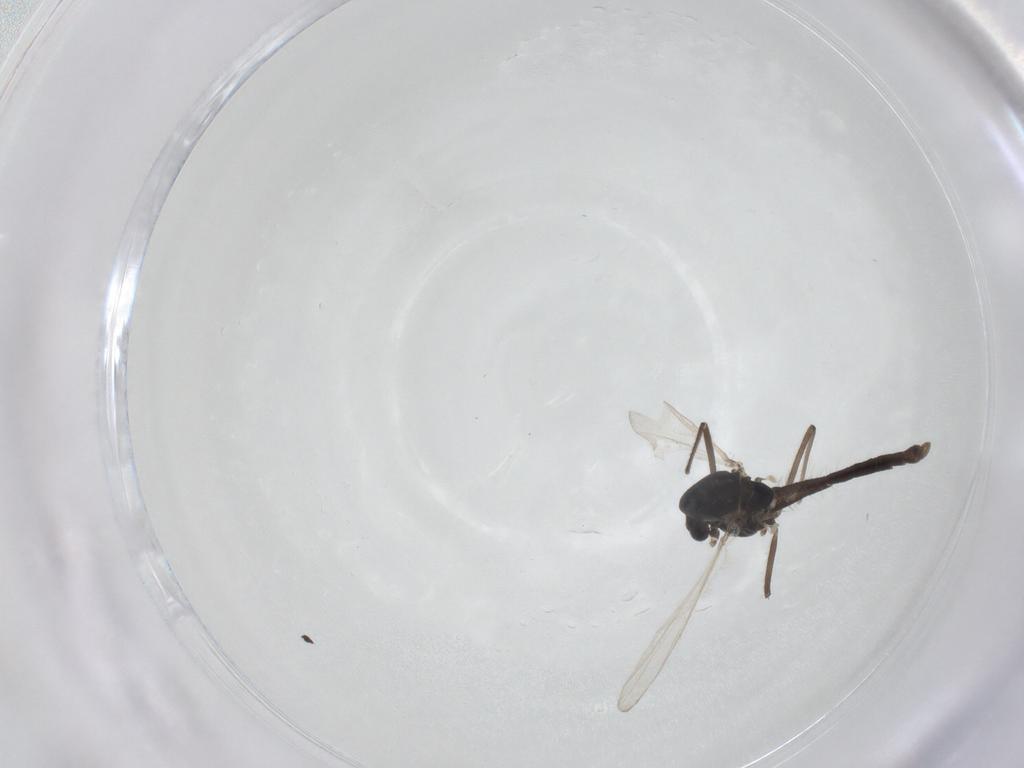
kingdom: Animalia
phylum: Arthropoda
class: Insecta
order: Diptera
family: Chironomidae
